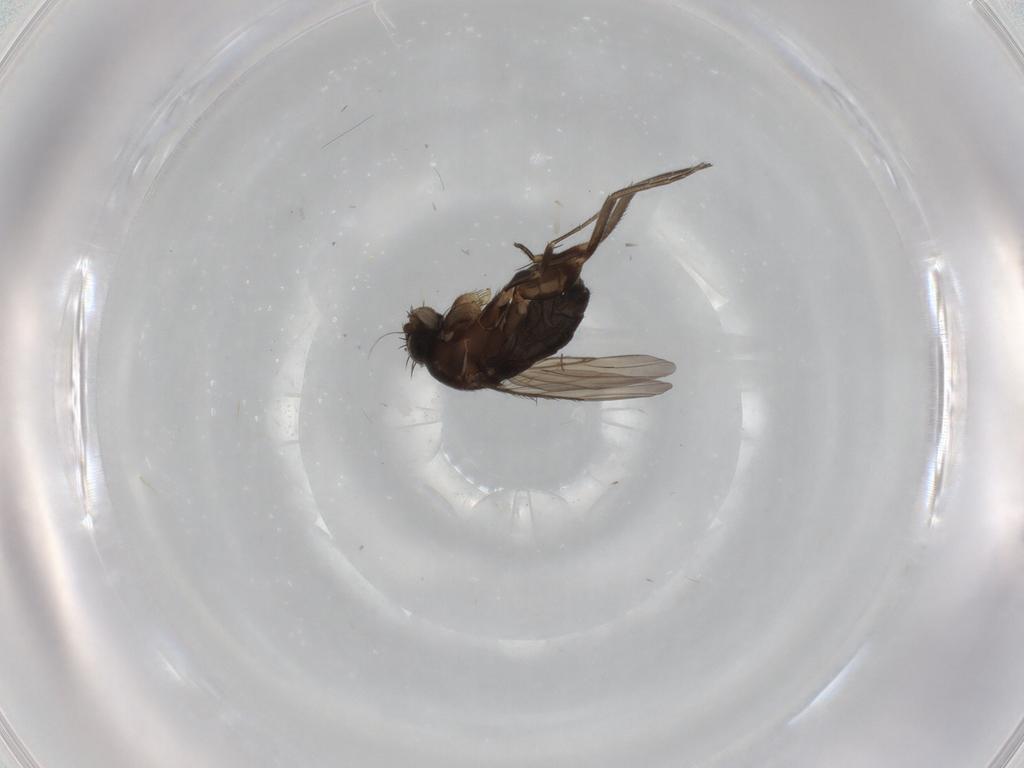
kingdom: Animalia
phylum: Arthropoda
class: Insecta
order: Diptera
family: Phoridae
